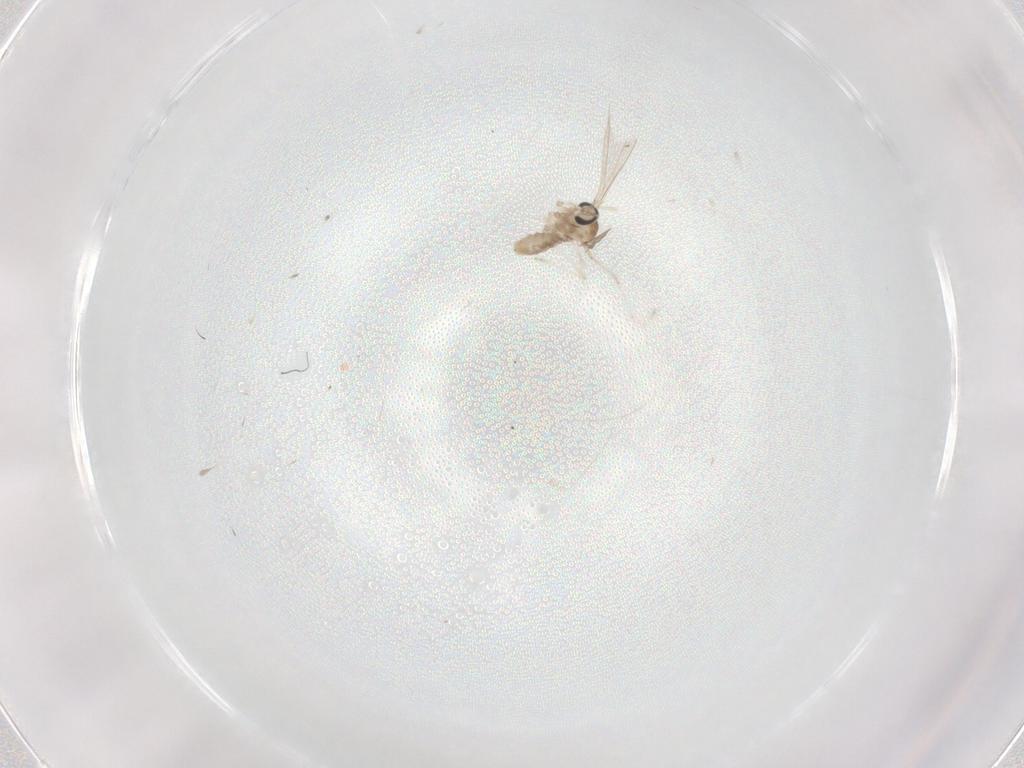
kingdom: Animalia
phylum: Arthropoda
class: Insecta
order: Diptera
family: Cecidomyiidae
